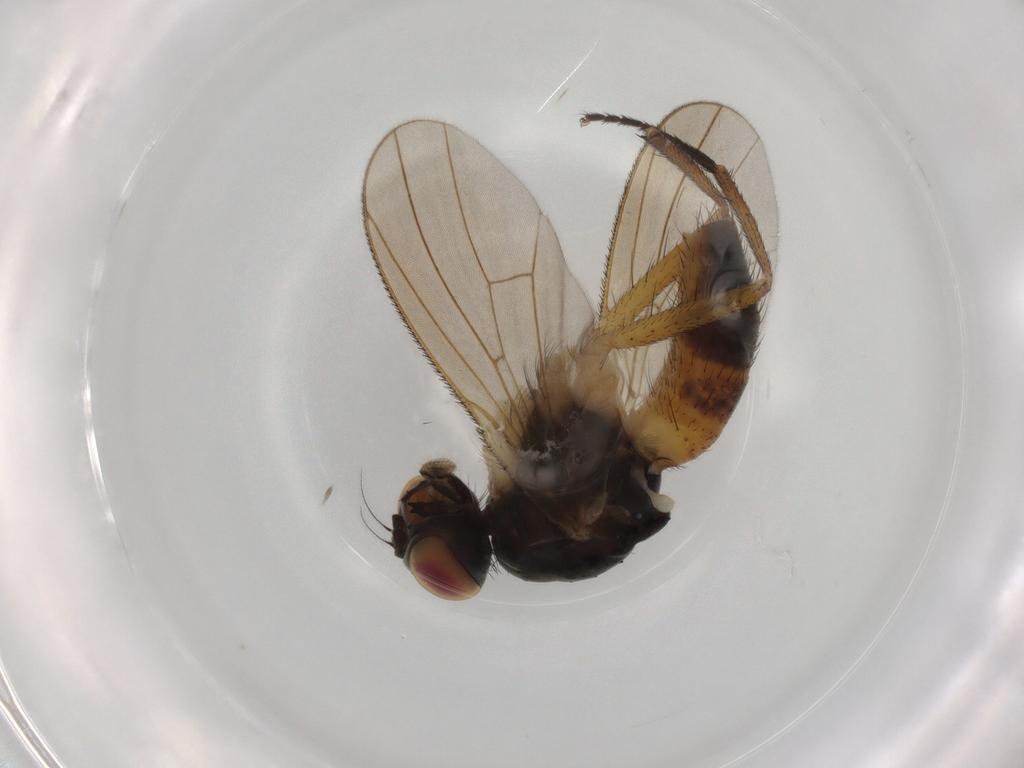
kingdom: Animalia
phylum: Arthropoda
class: Insecta
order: Diptera
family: Muscidae
